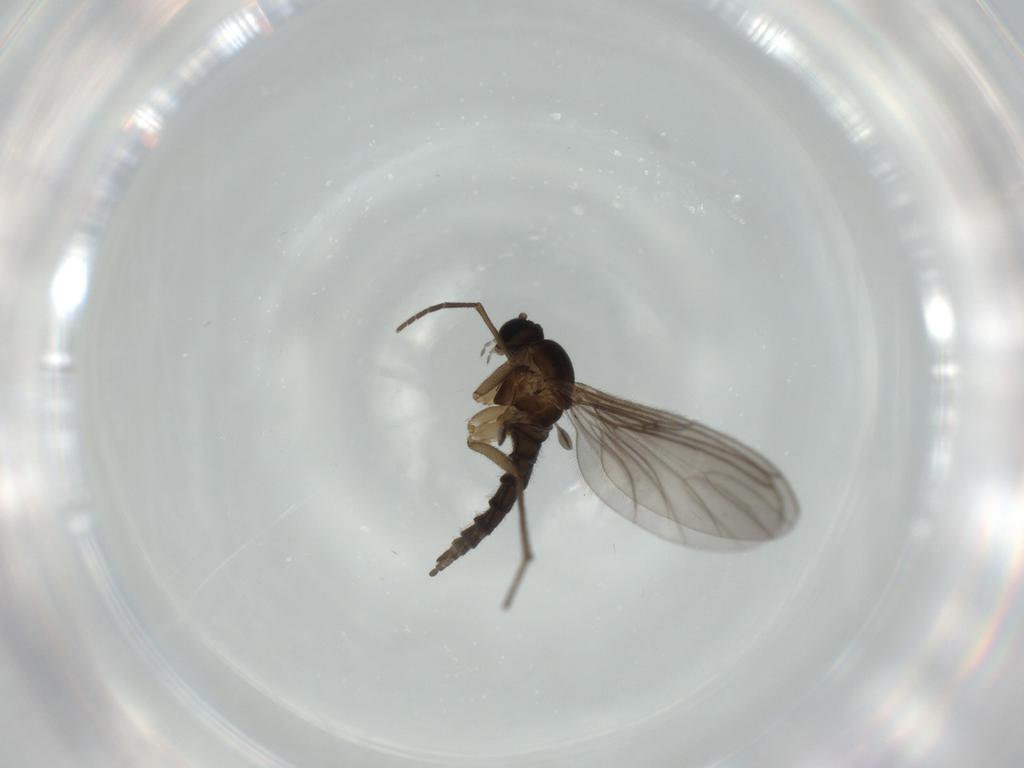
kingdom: Animalia
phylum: Arthropoda
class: Insecta
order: Diptera
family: Sciaridae
